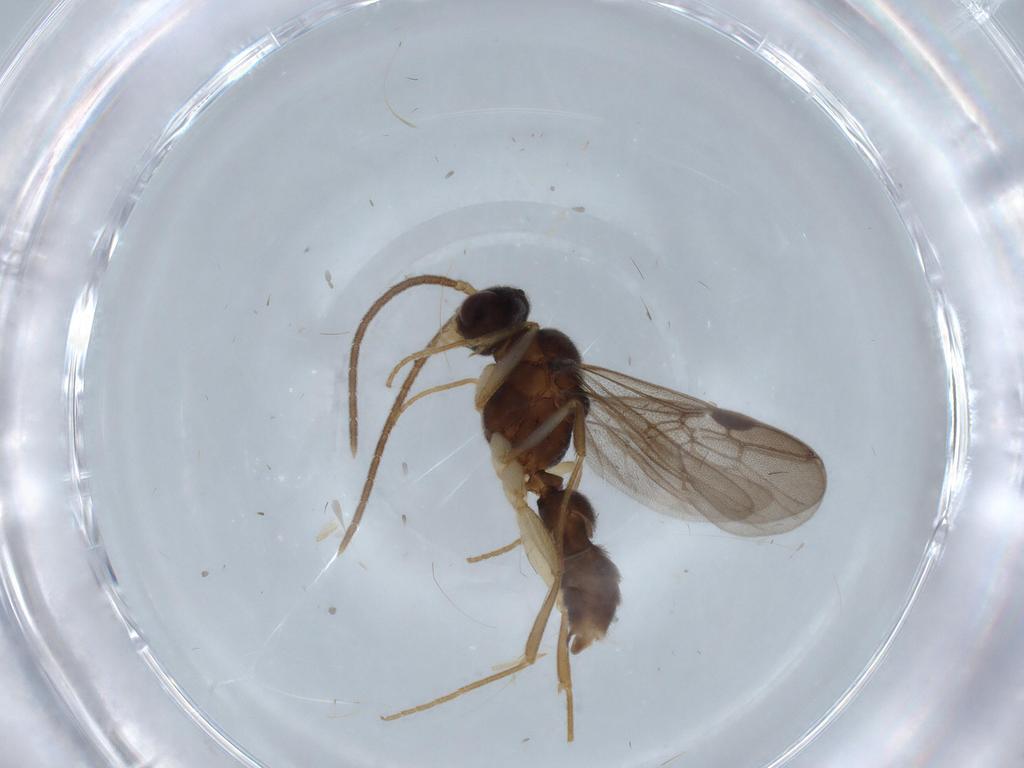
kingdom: Animalia
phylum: Arthropoda
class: Insecta
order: Hymenoptera
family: Formicidae
